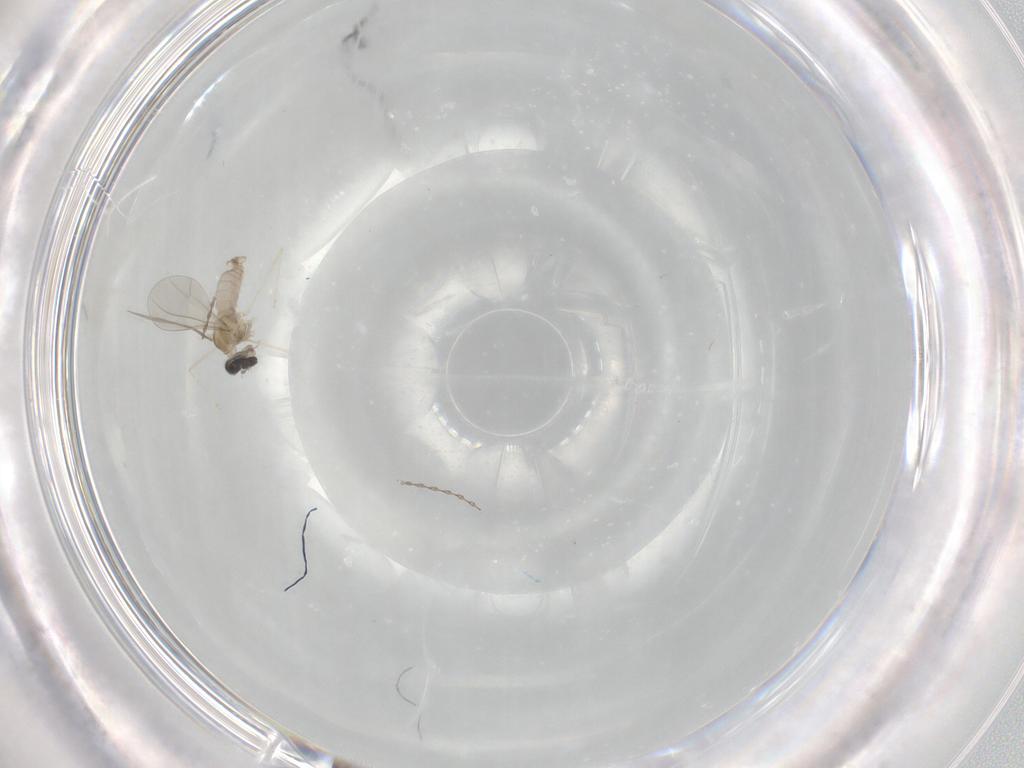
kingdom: Animalia
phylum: Arthropoda
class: Insecta
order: Diptera
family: Cecidomyiidae
